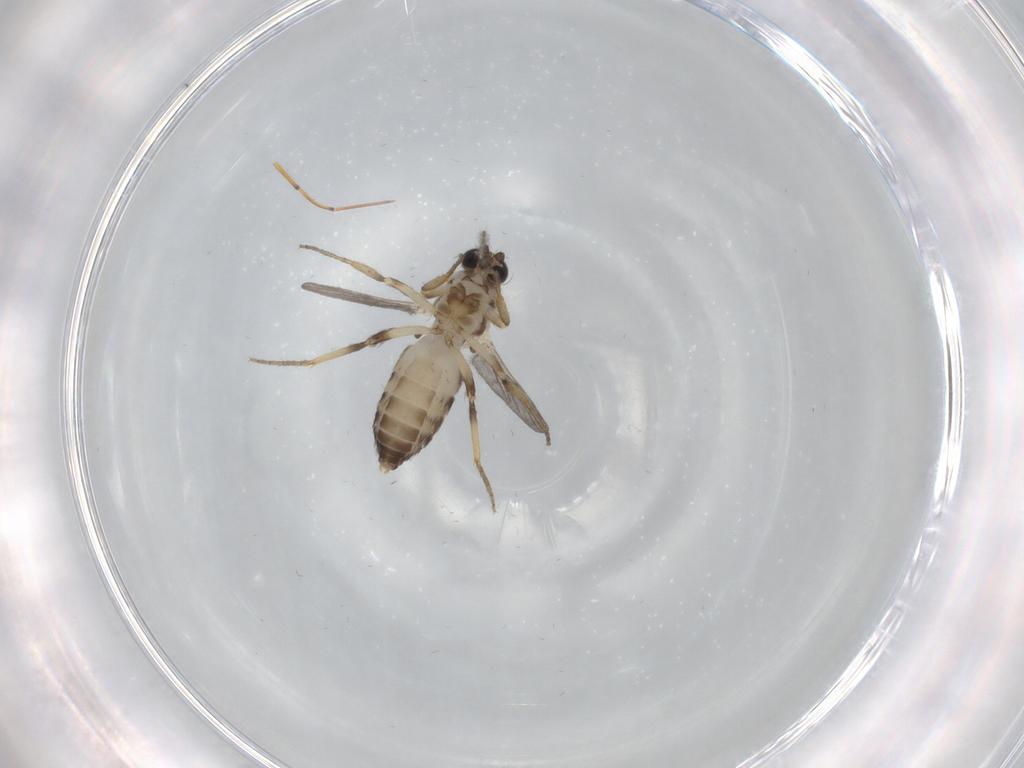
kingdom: Animalia
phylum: Arthropoda
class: Insecta
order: Diptera
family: Ceratopogonidae
